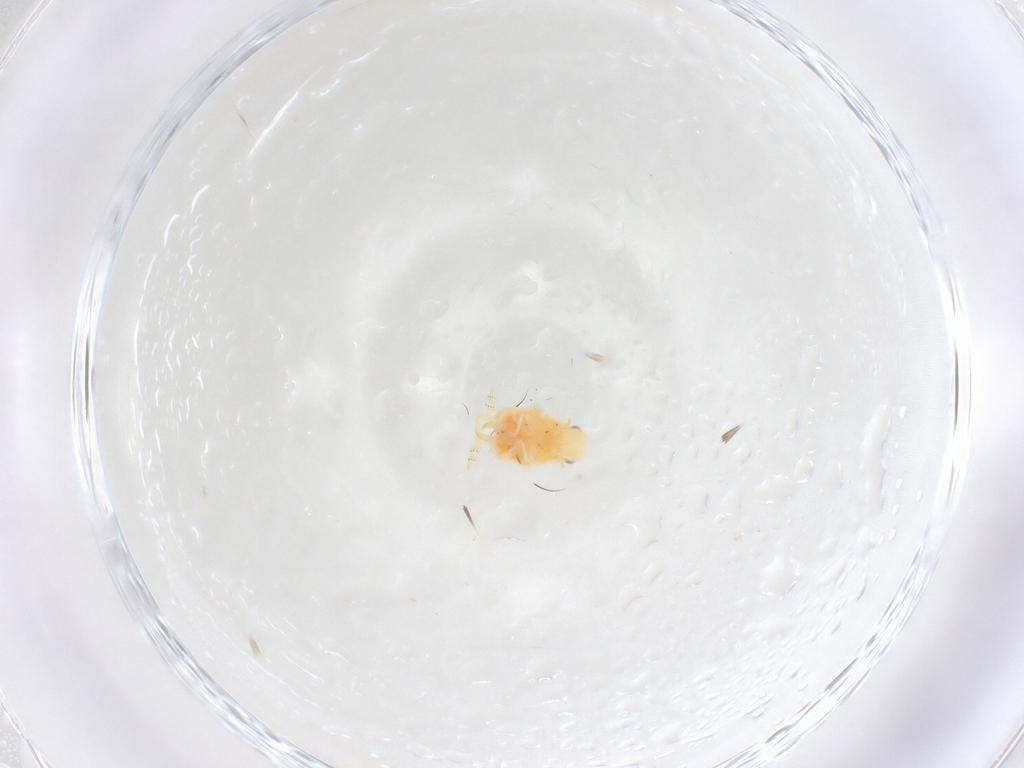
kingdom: Animalia
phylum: Arthropoda
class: Insecta
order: Hemiptera
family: Flatidae
